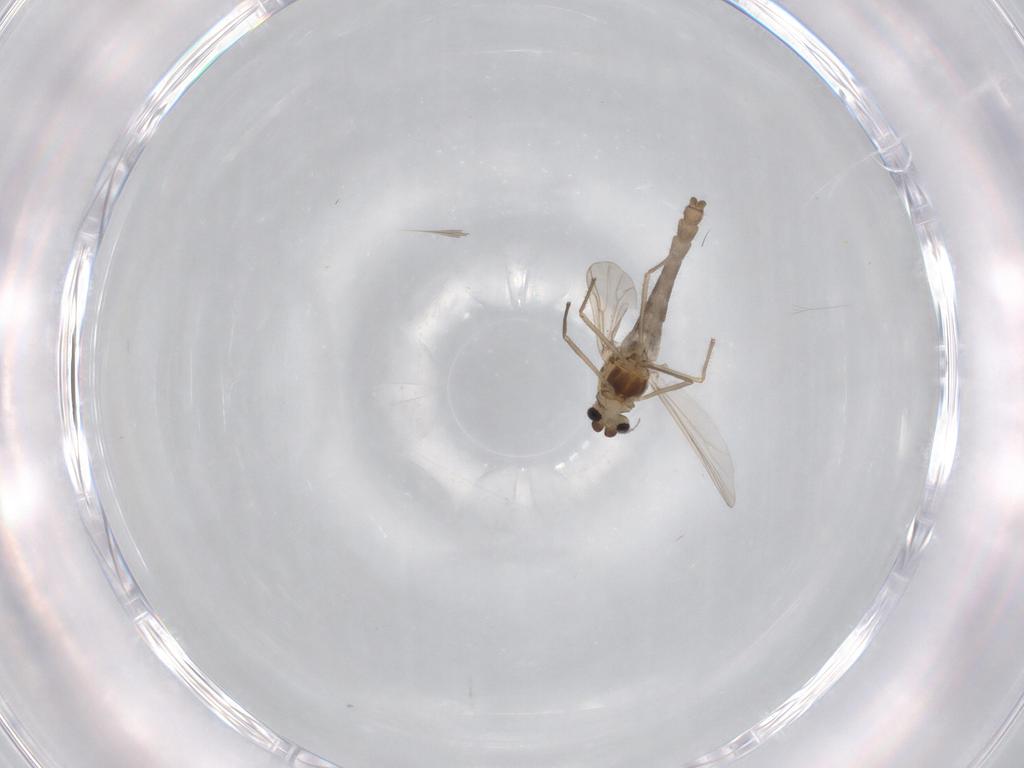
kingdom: Animalia
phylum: Arthropoda
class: Insecta
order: Diptera
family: Chironomidae
